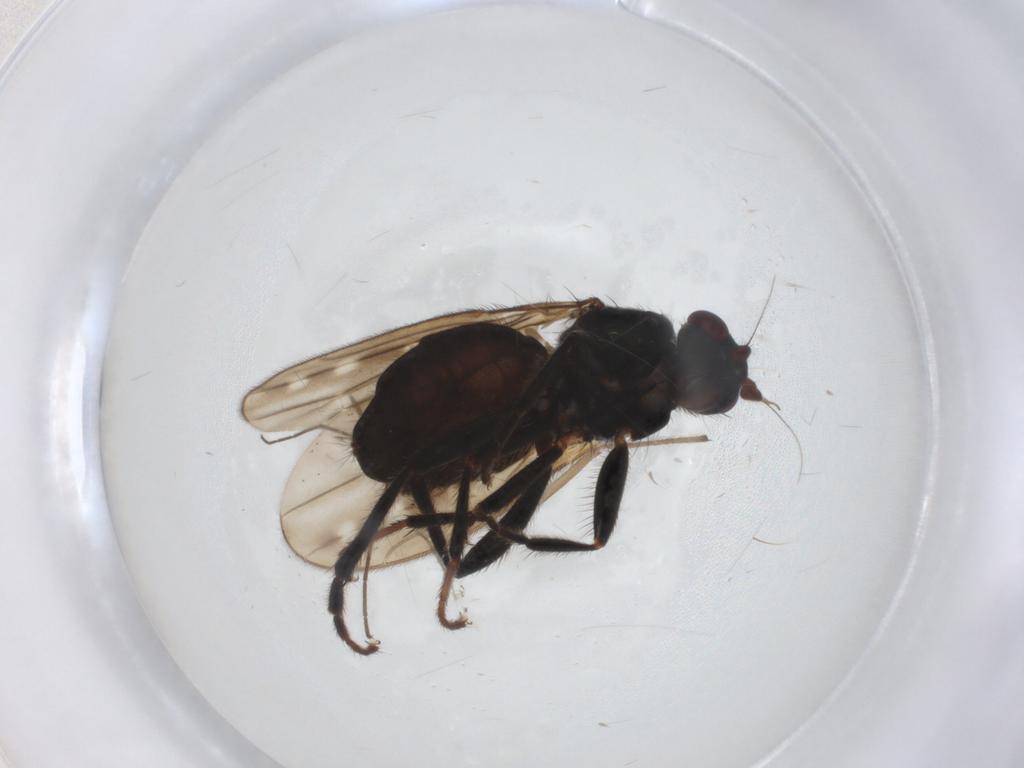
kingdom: Animalia
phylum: Arthropoda
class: Insecta
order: Diptera
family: Sphaeroceridae
